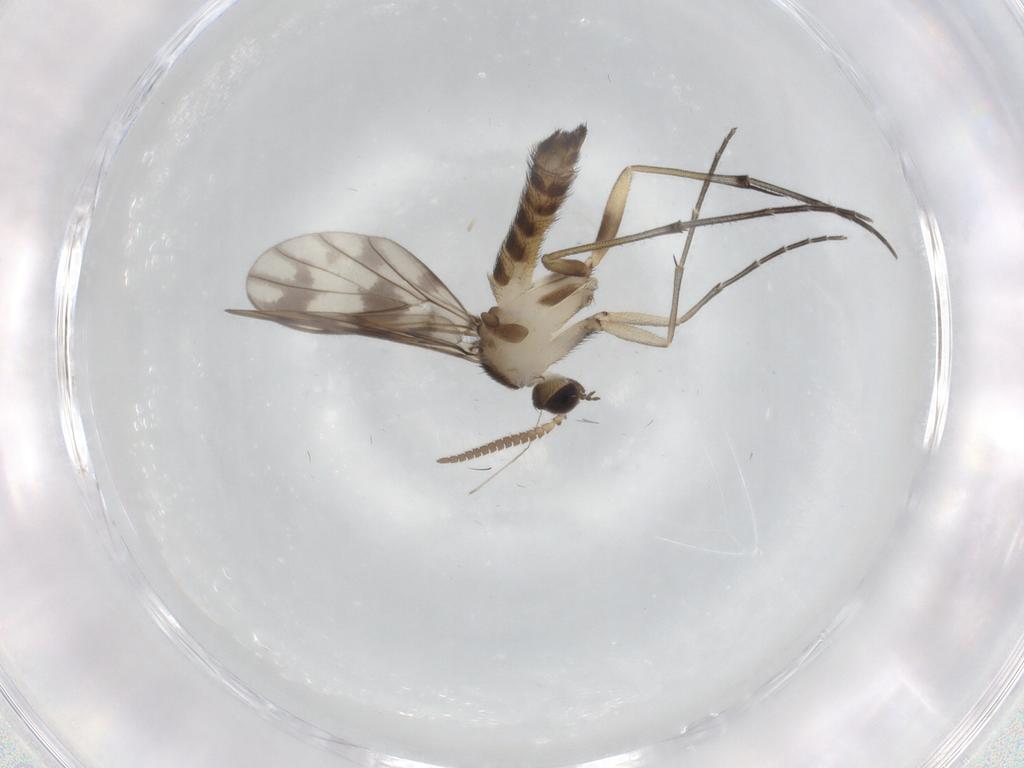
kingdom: Animalia
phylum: Arthropoda
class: Insecta
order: Diptera
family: Keroplatidae
